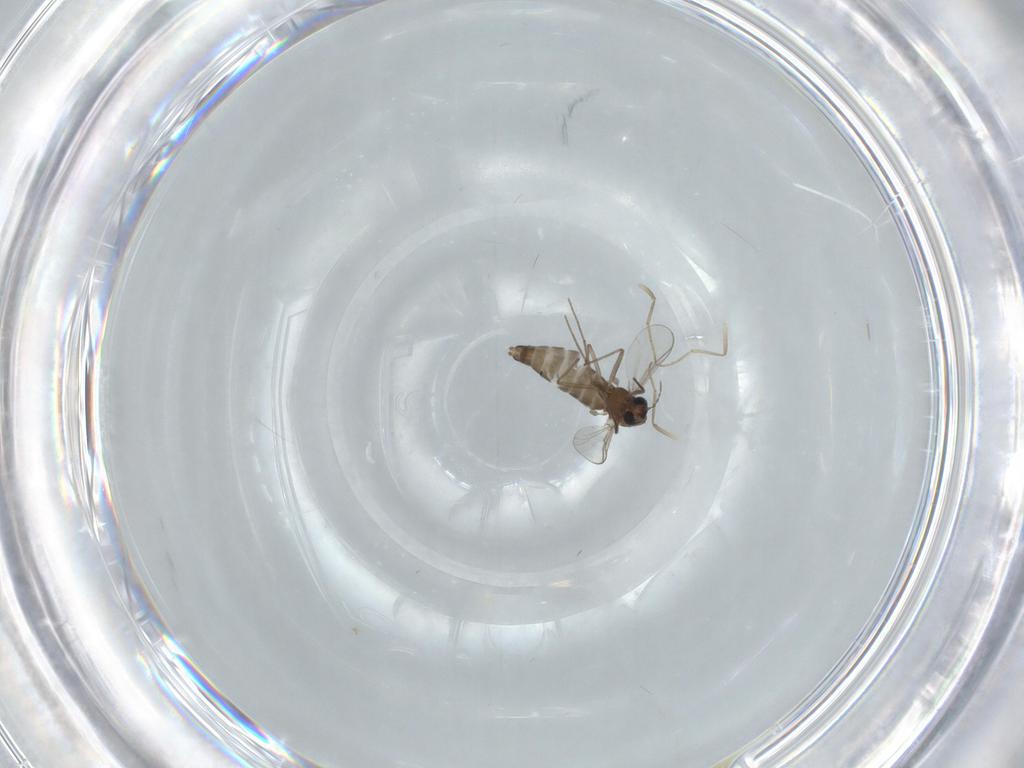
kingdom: Animalia
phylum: Arthropoda
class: Insecta
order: Diptera
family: Chironomidae
